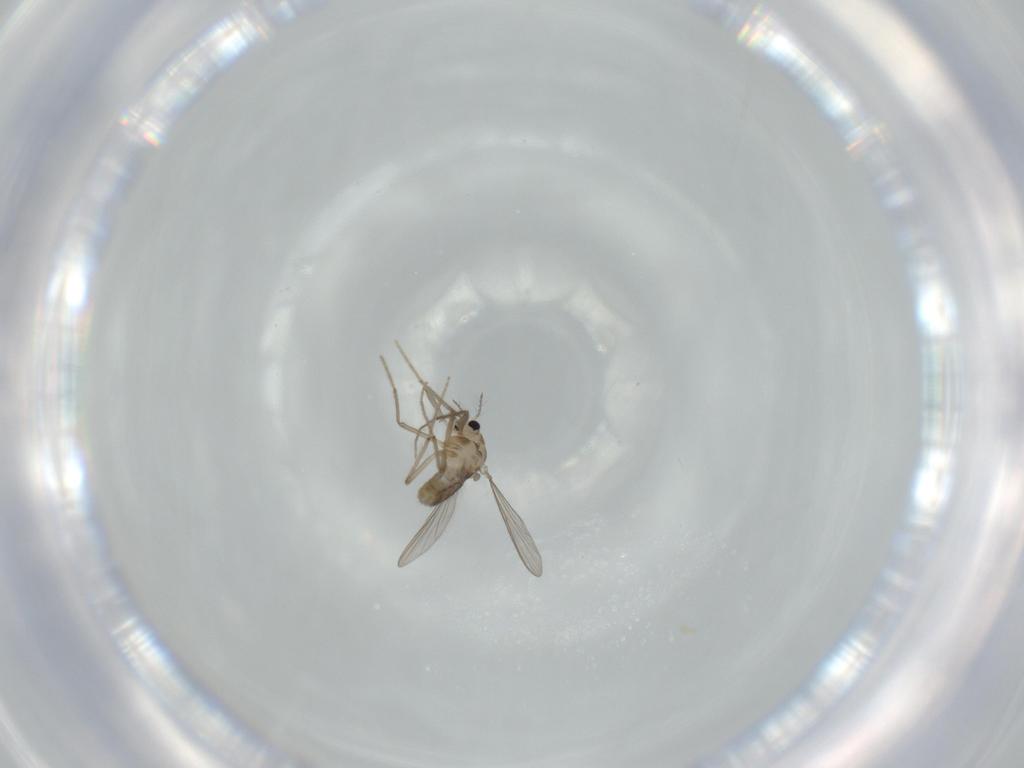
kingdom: Animalia
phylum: Arthropoda
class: Insecta
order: Diptera
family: Chironomidae
